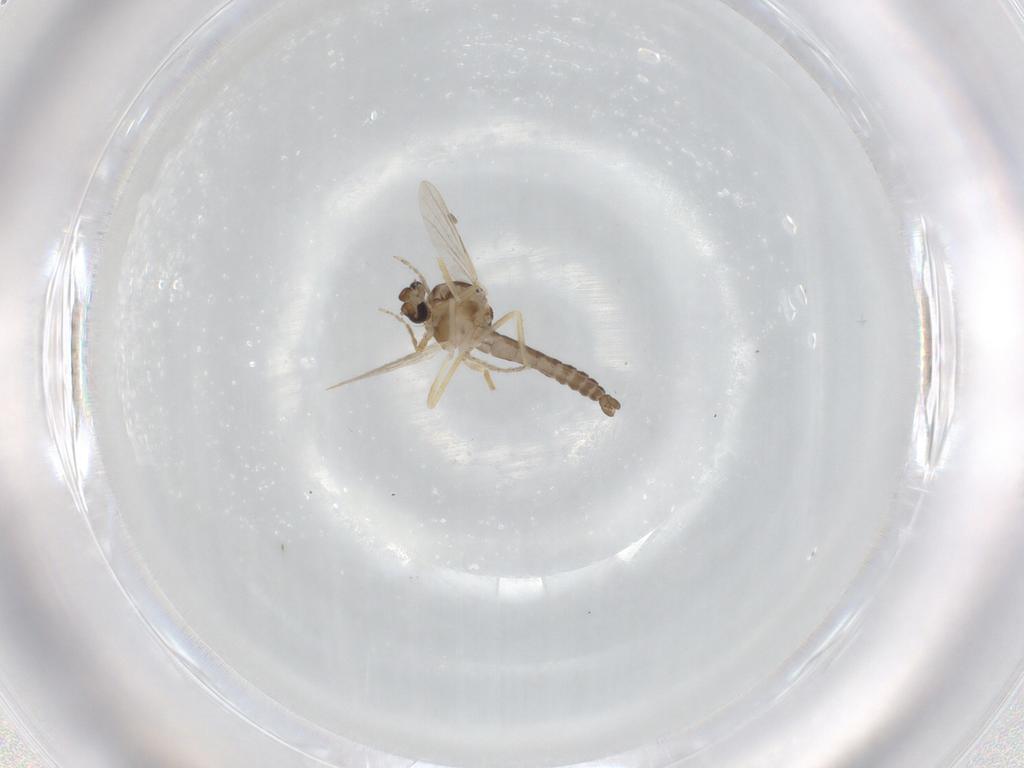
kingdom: Animalia
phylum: Arthropoda
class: Insecta
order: Diptera
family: Ceratopogonidae
